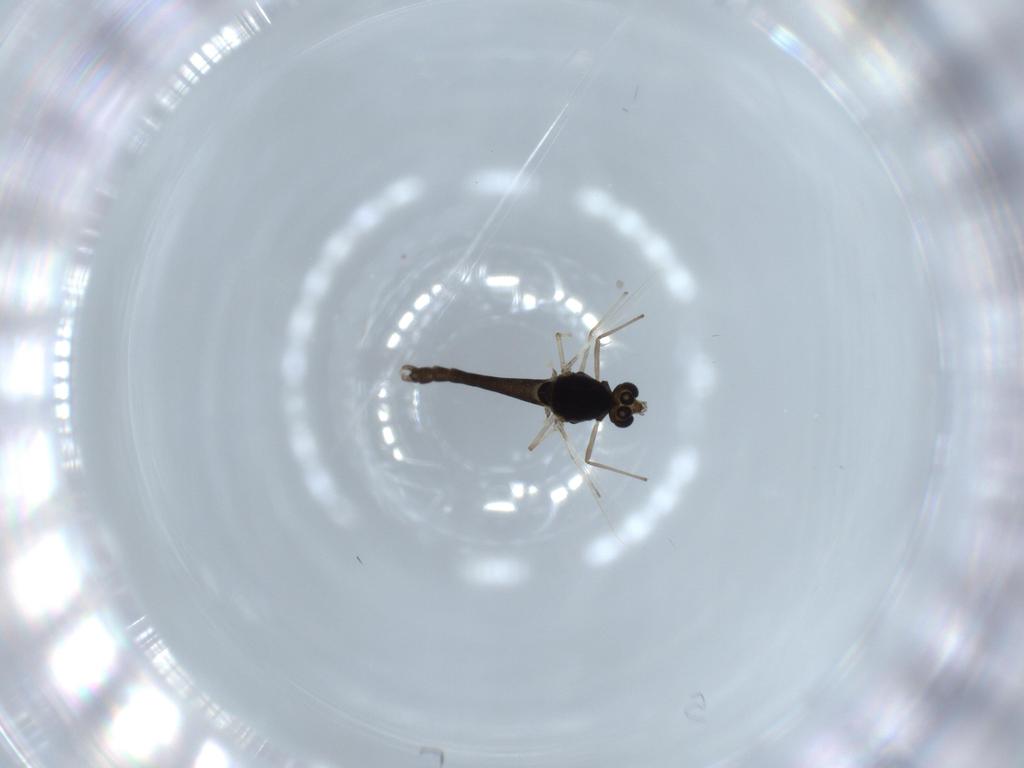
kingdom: Animalia
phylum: Arthropoda
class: Insecta
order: Diptera
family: Chironomidae
